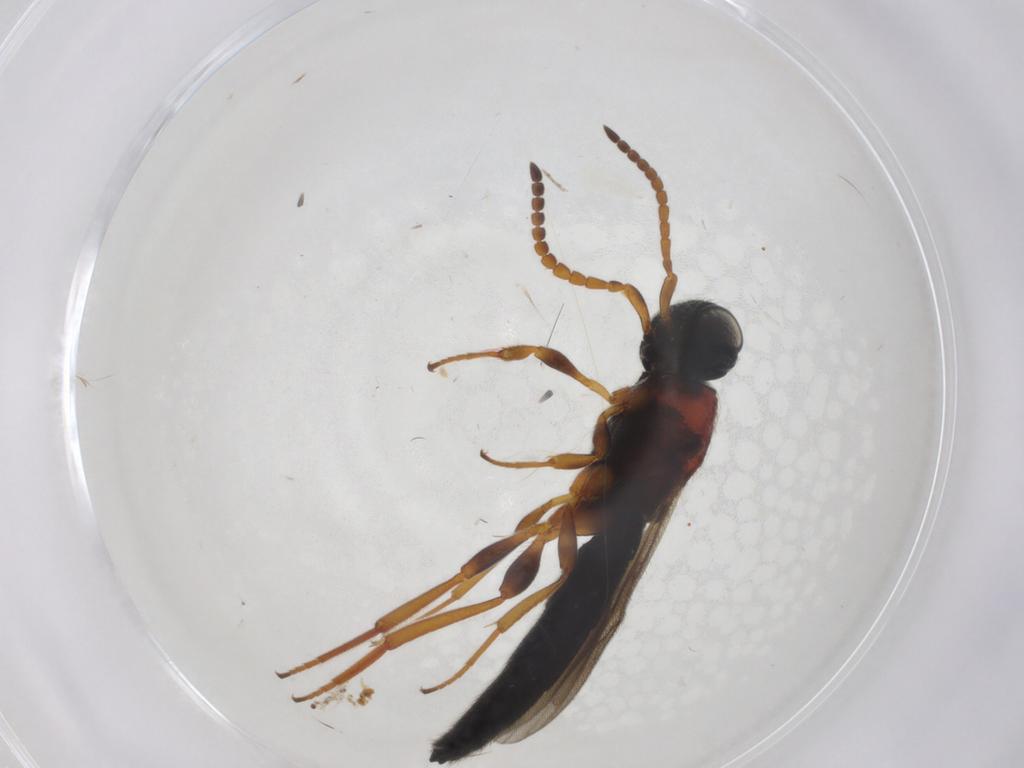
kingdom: Animalia
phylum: Arthropoda
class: Insecta
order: Hymenoptera
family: Scelionidae
